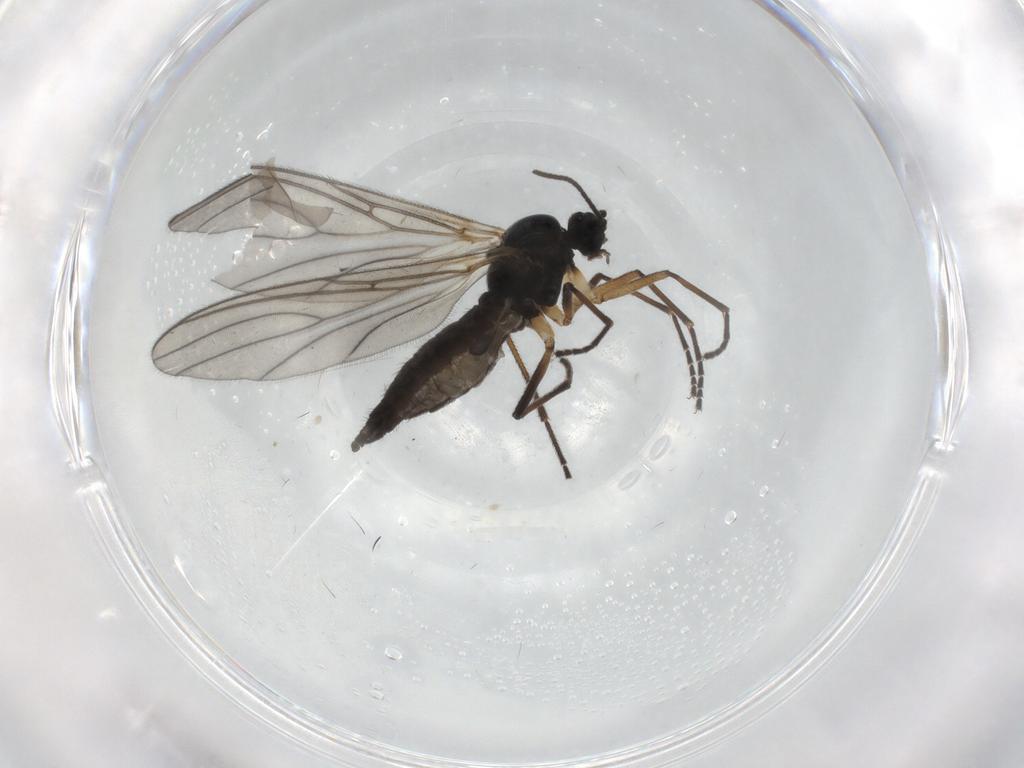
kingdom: Animalia
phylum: Arthropoda
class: Insecta
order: Diptera
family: Sciaridae
